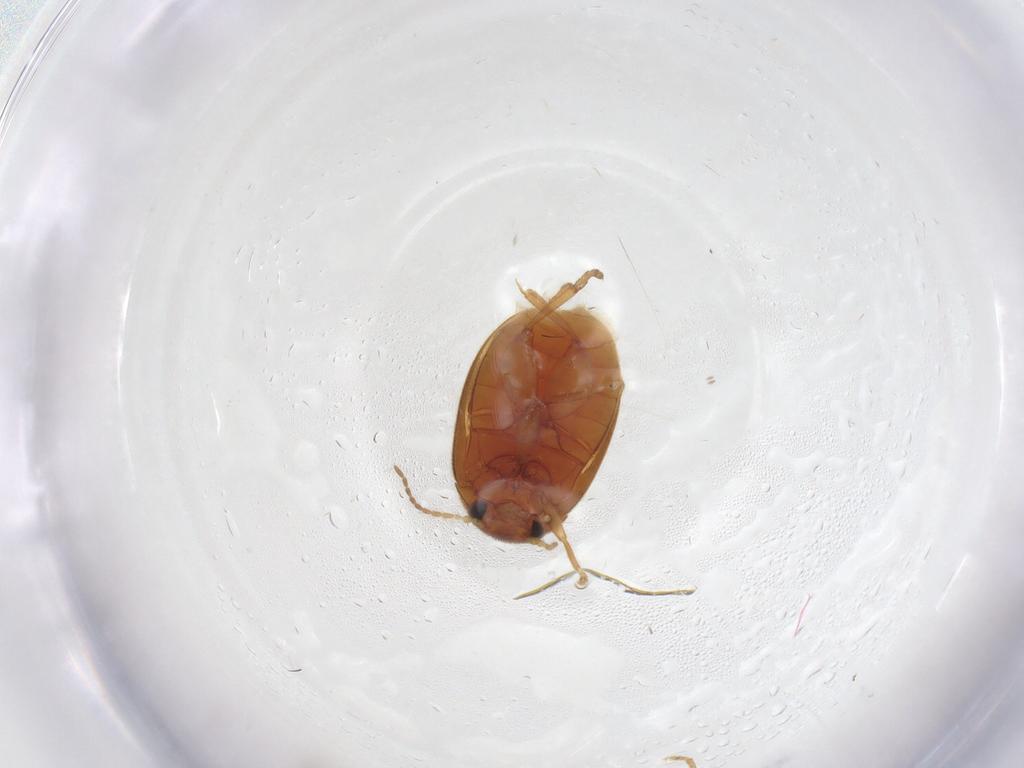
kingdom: Animalia
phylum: Arthropoda
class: Insecta
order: Coleoptera
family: Scirtidae
